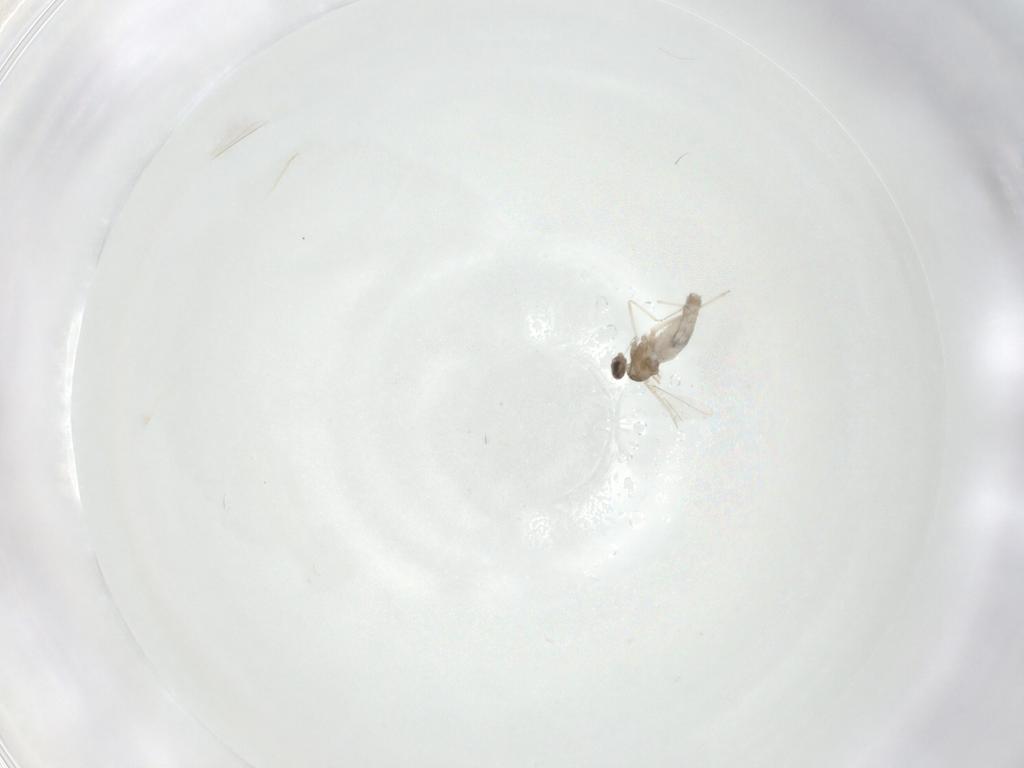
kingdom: Animalia
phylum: Arthropoda
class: Insecta
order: Diptera
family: Cecidomyiidae
